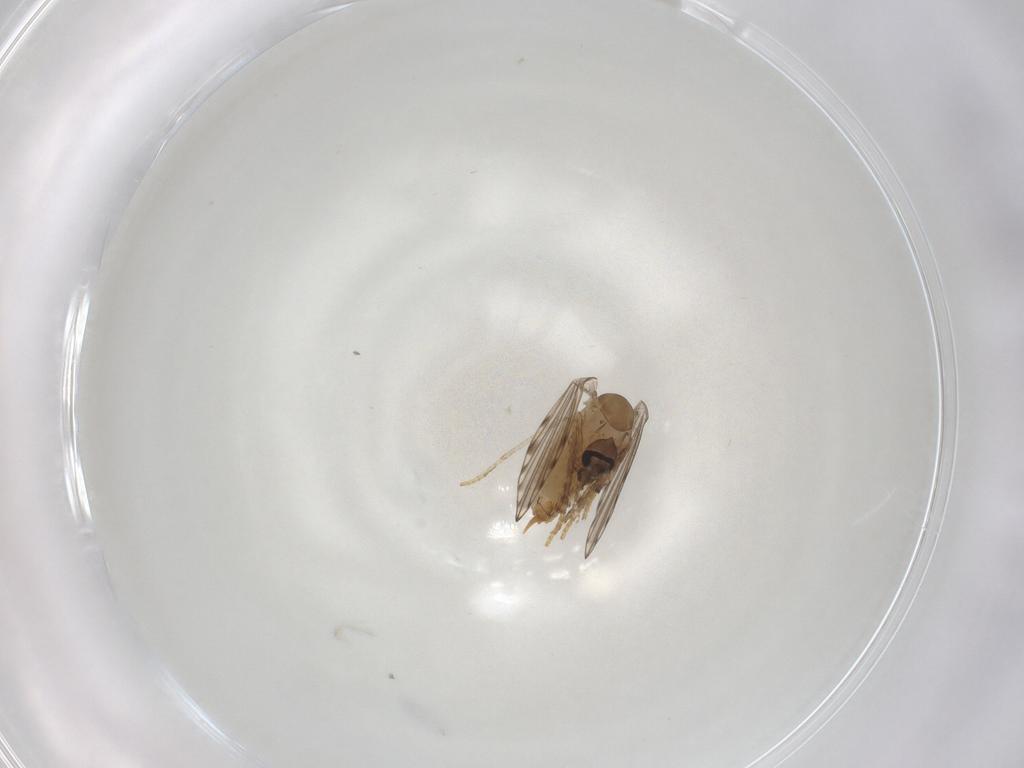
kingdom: Animalia
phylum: Arthropoda
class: Insecta
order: Diptera
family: Psychodidae
